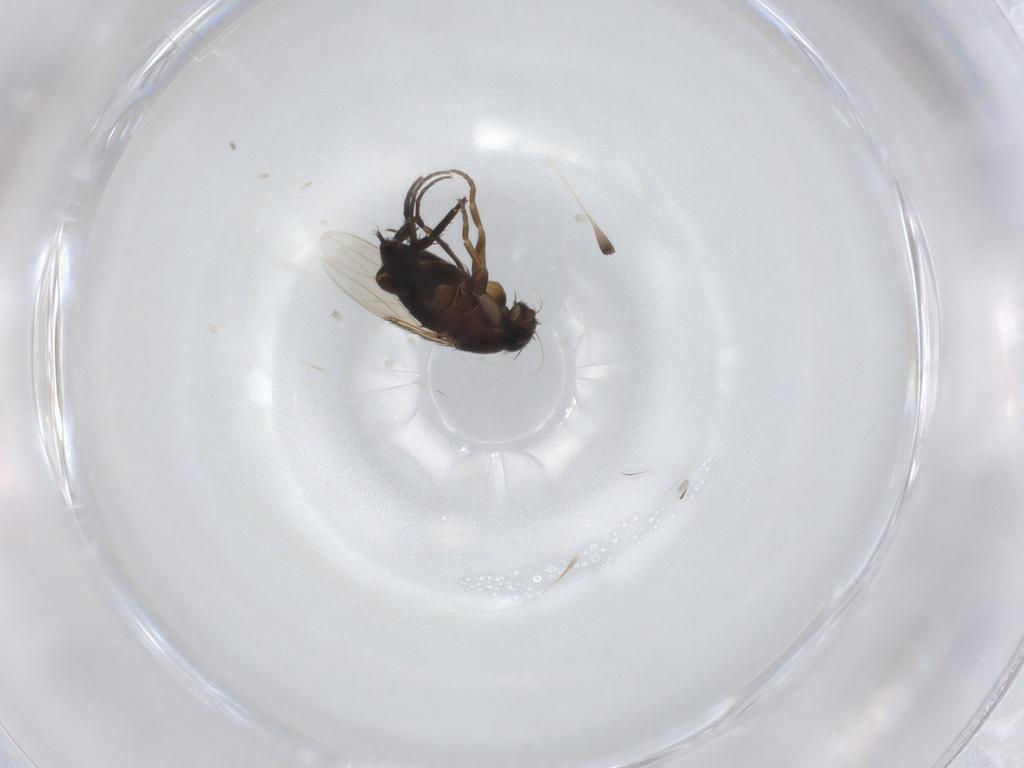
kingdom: Animalia
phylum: Arthropoda
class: Insecta
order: Diptera
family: Phoridae
